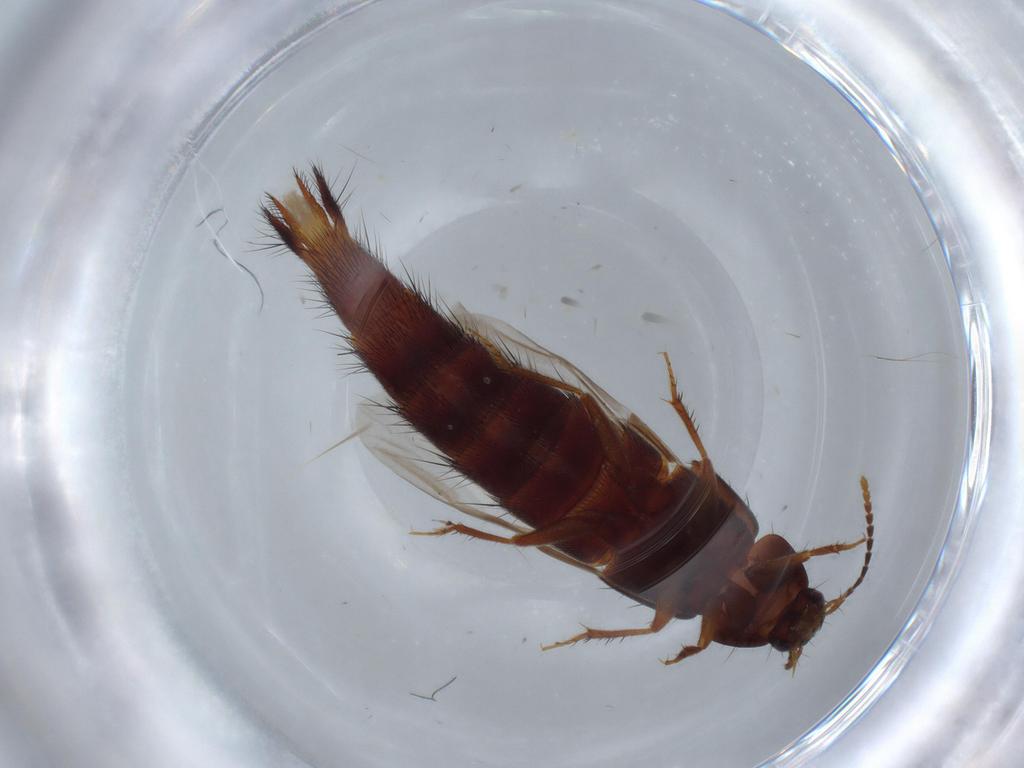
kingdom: Animalia
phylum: Arthropoda
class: Insecta
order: Coleoptera
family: Staphylinidae
